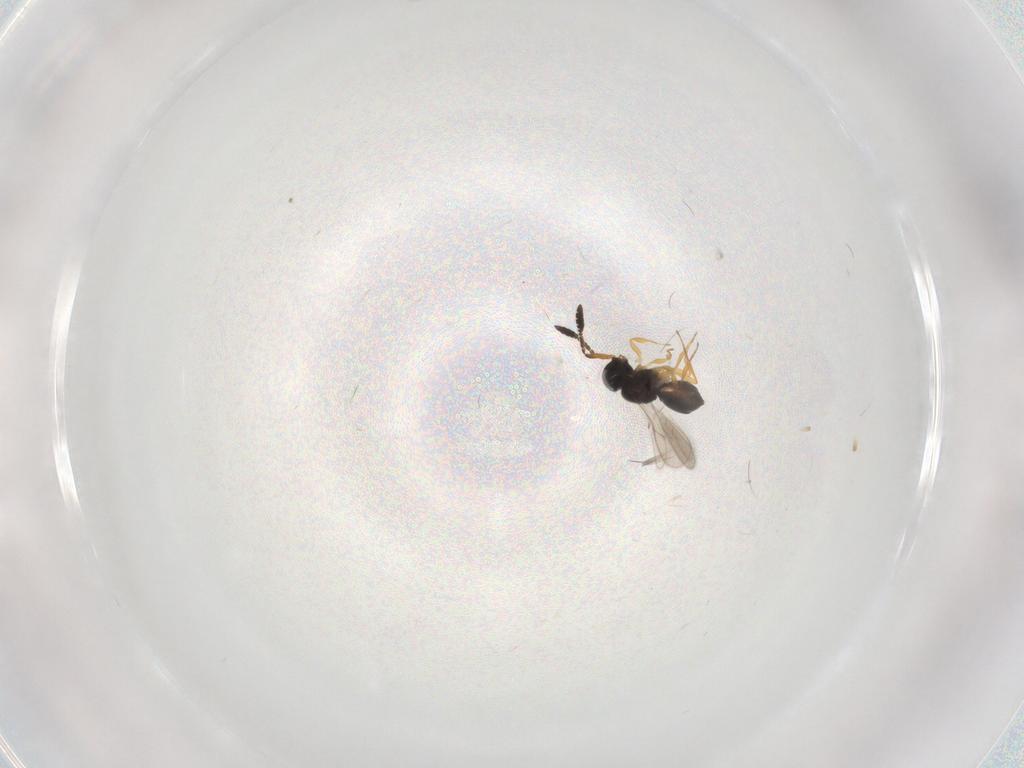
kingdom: Animalia
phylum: Arthropoda
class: Insecta
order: Hymenoptera
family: Scelionidae
